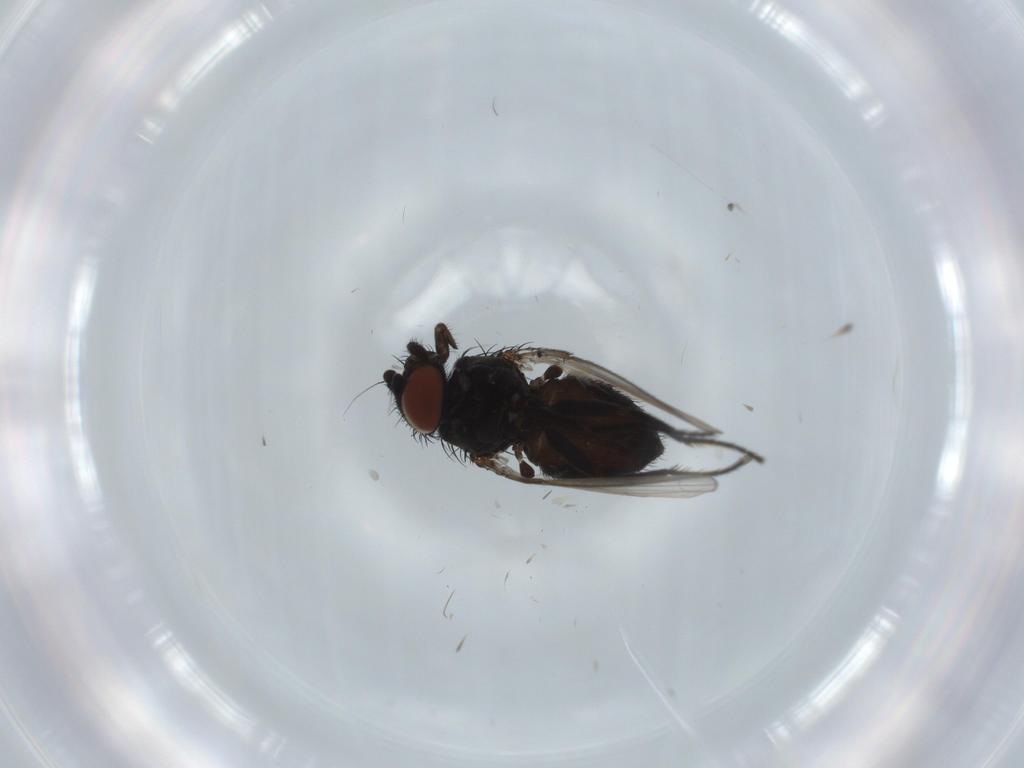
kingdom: Animalia
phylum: Arthropoda
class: Insecta
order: Diptera
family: Milichiidae
